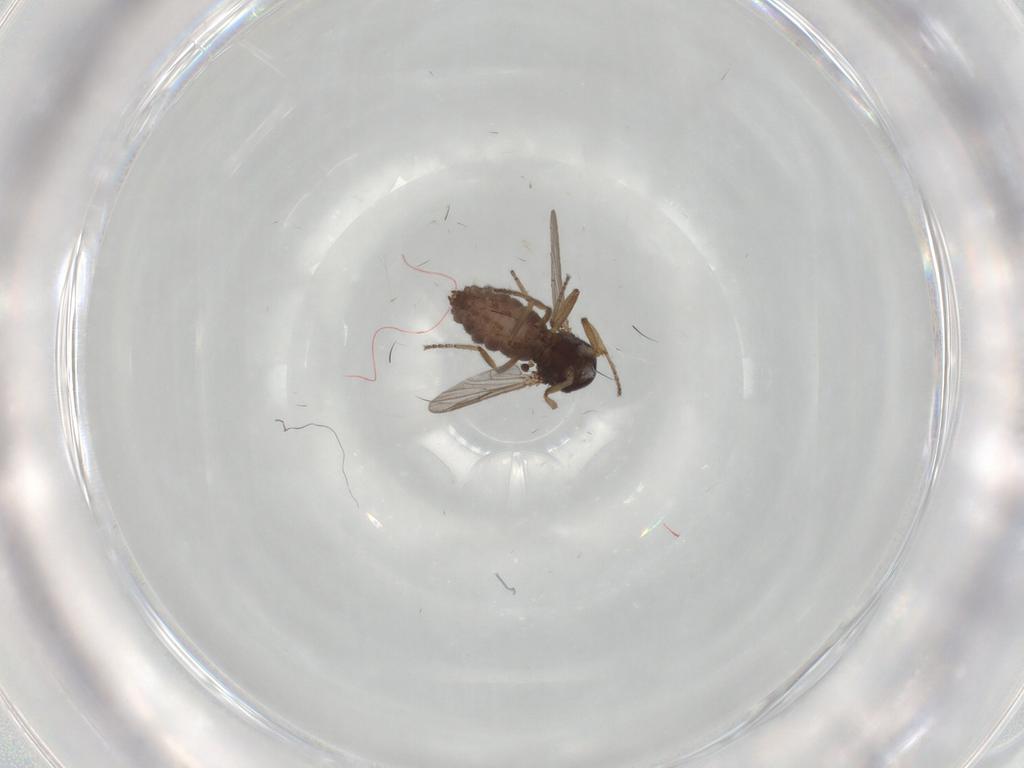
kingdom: Animalia
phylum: Arthropoda
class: Insecta
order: Diptera
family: Ceratopogonidae
